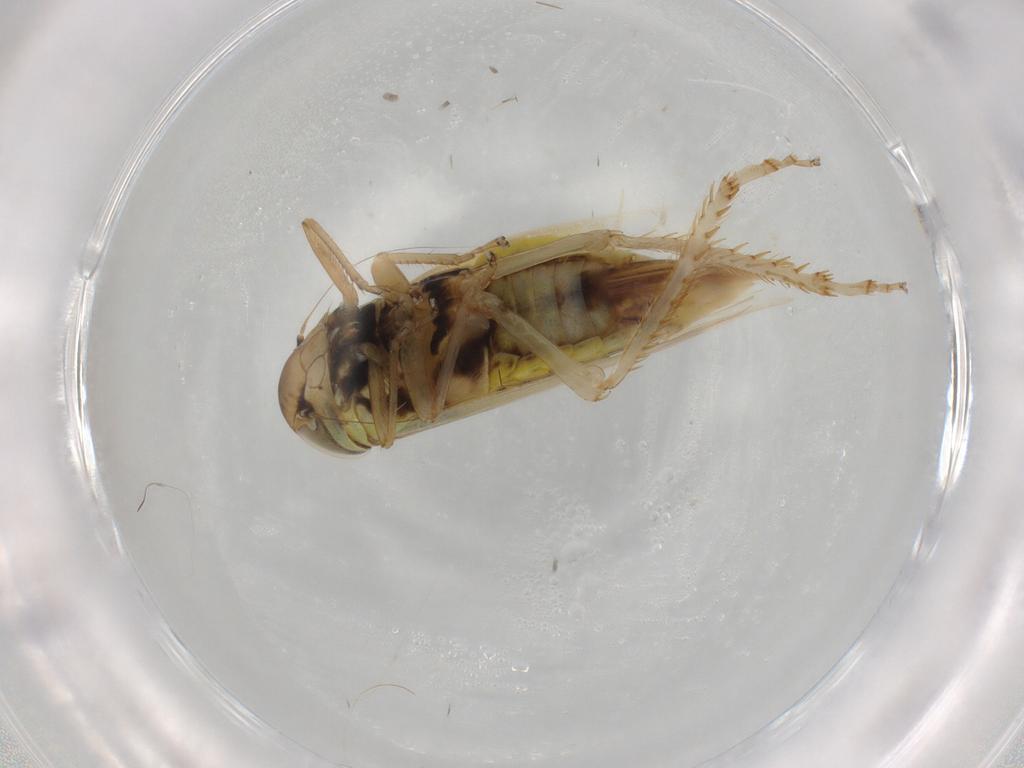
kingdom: Animalia
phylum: Arthropoda
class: Insecta
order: Hemiptera
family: Cicadellidae
